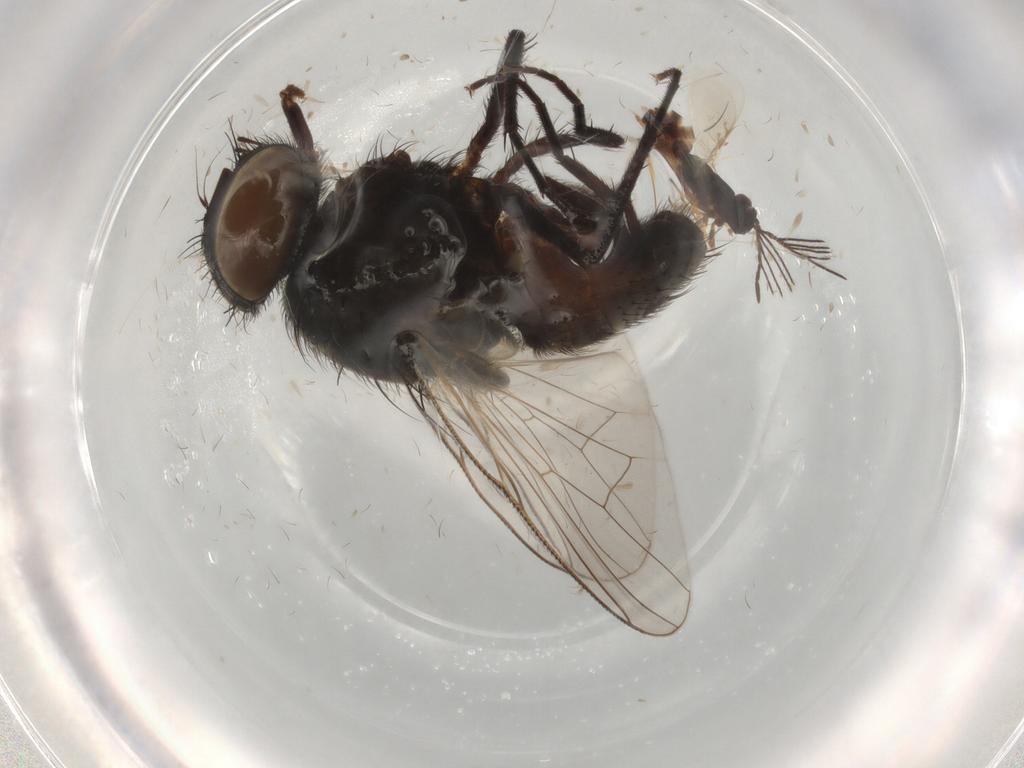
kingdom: Animalia
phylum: Arthropoda
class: Insecta
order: Diptera
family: Muscidae
